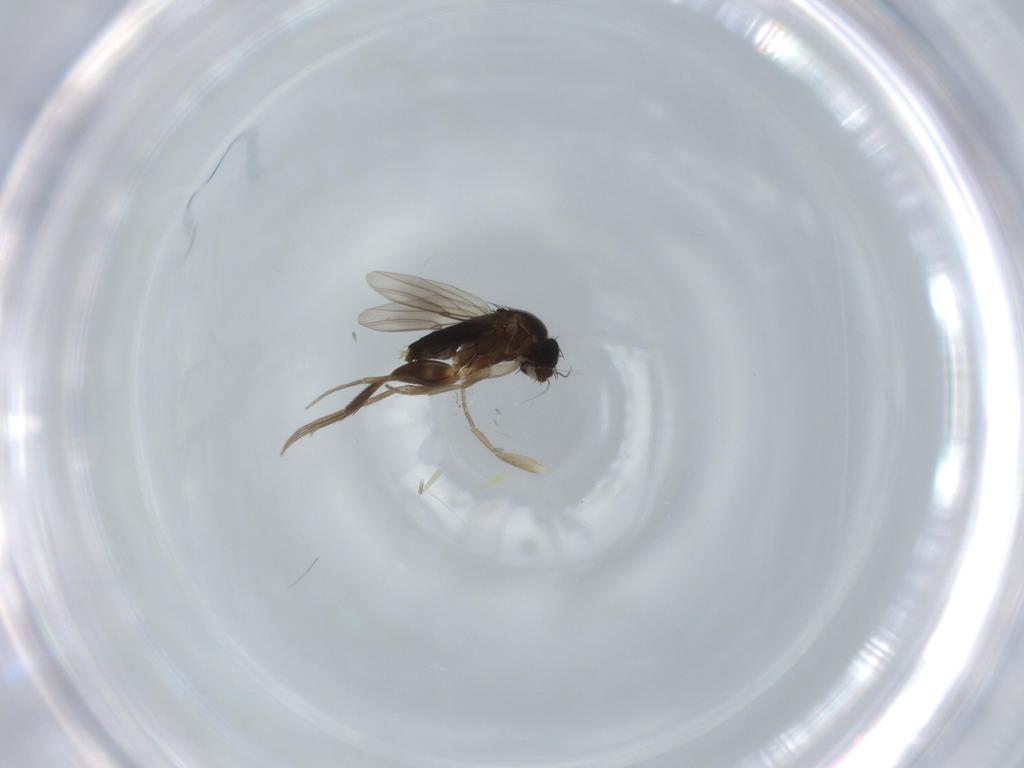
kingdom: Animalia
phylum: Arthropoda
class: Insecta
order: Diptera
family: Phoridae
